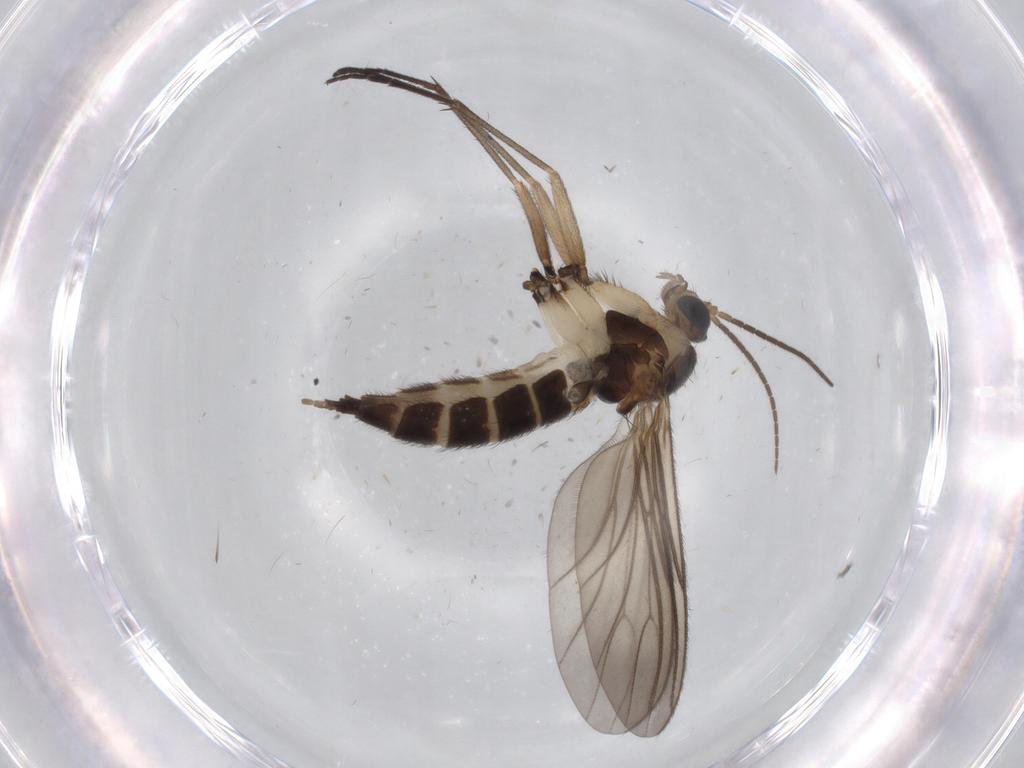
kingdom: Animalia
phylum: Arthropoda
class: Insecta
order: Diptera
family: Sciaridae
